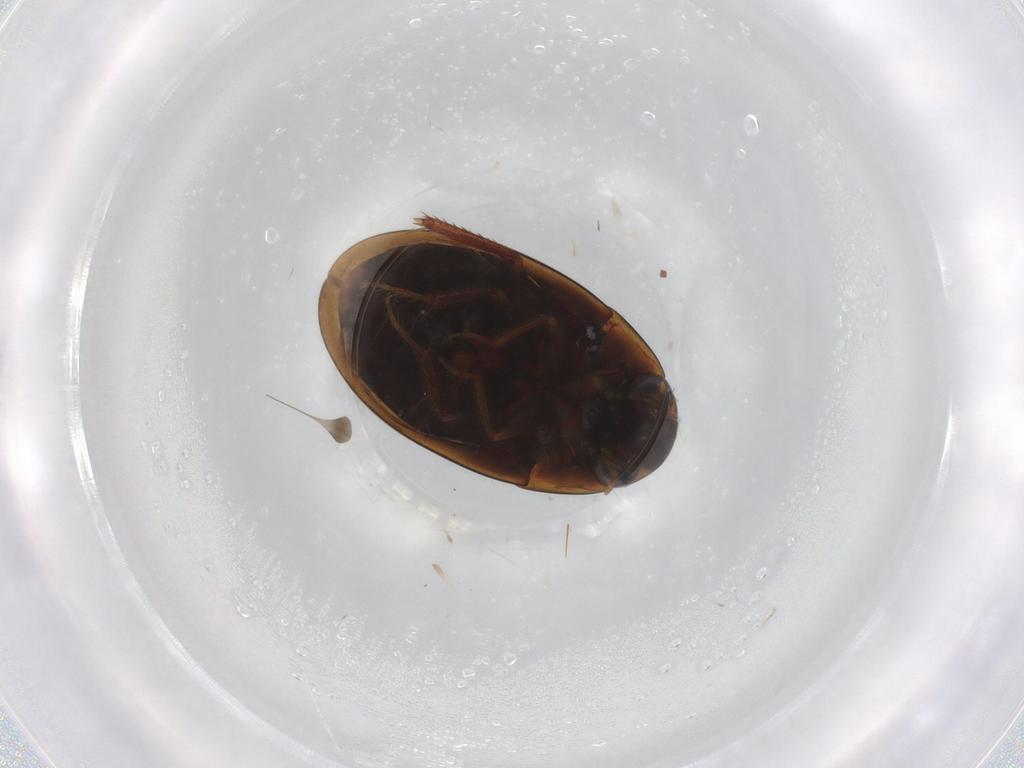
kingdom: Animalia
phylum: Arthropoda
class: Insecta
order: Coleoptera
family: Hydrophilidae
